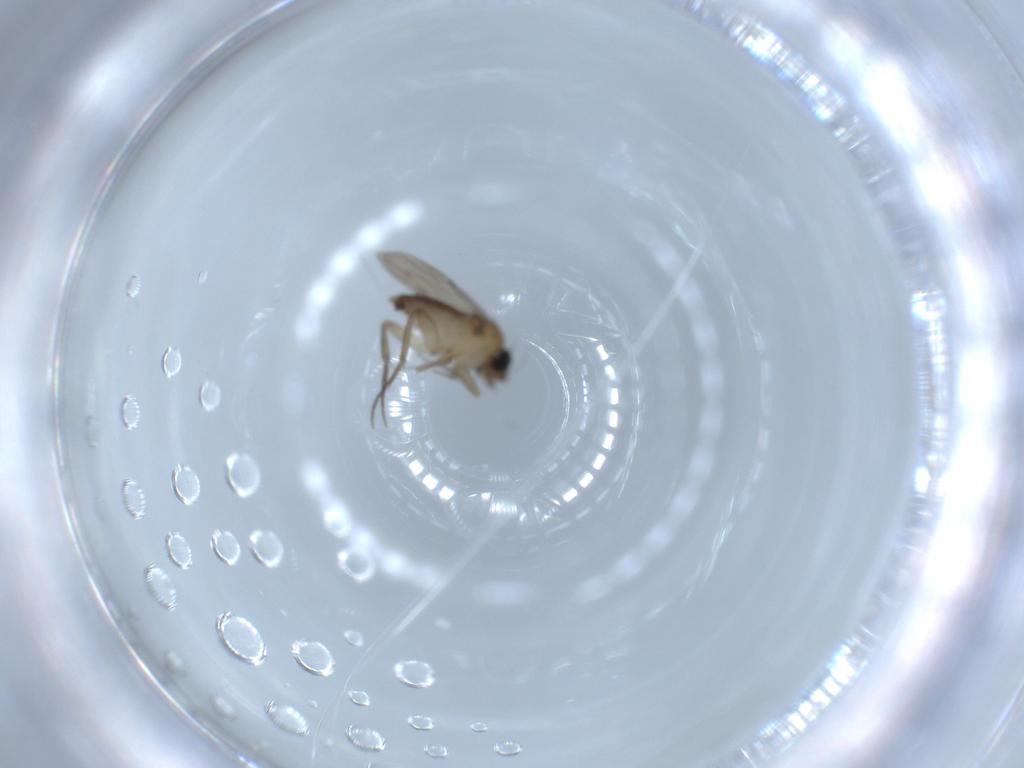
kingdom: Animalia
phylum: Arthropoda
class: Insecta
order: Diptera
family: Phoridae
